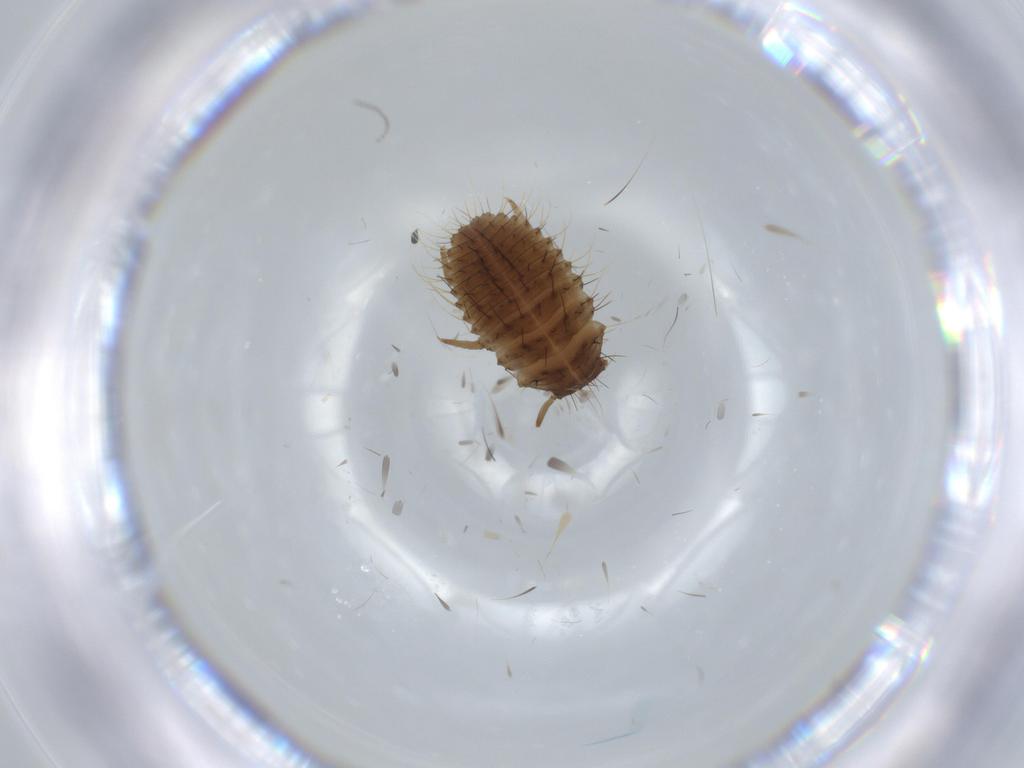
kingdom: Animalia
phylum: Arthropoda
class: Insecta
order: Coleoptera
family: Endomychidae
